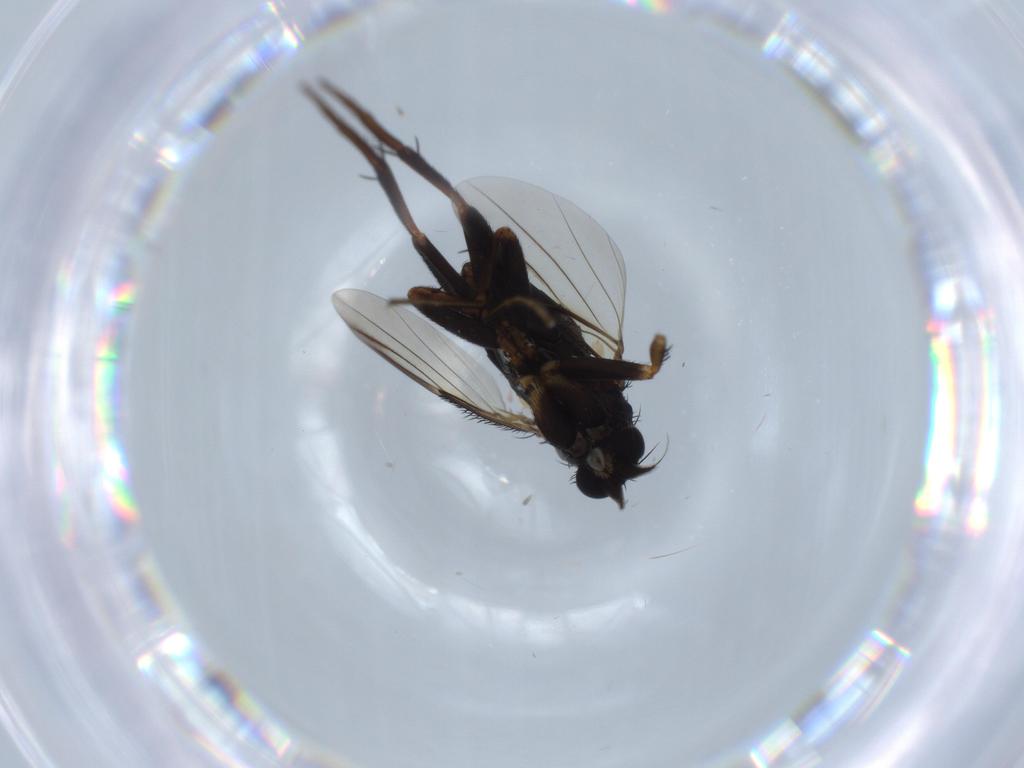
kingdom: Animalia
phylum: Arthropoda
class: Insecta
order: Diptera
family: Phoridae
